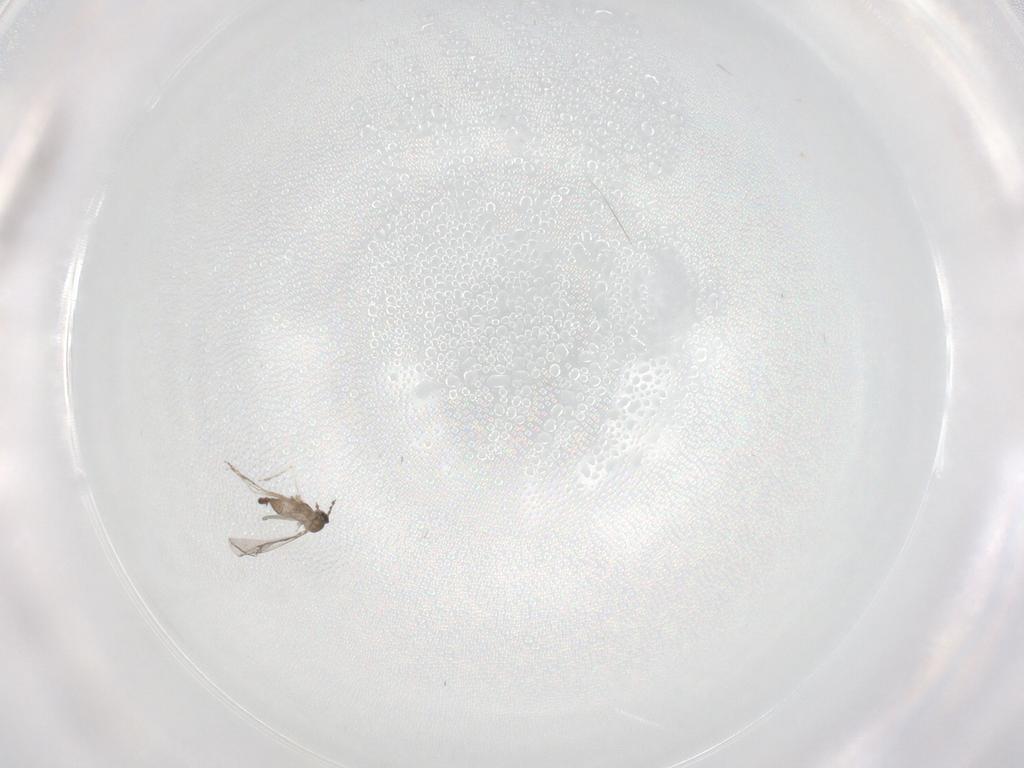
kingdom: Animalia
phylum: Arthropoda
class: Insecta
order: Diptera
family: Cecidomyiidae
